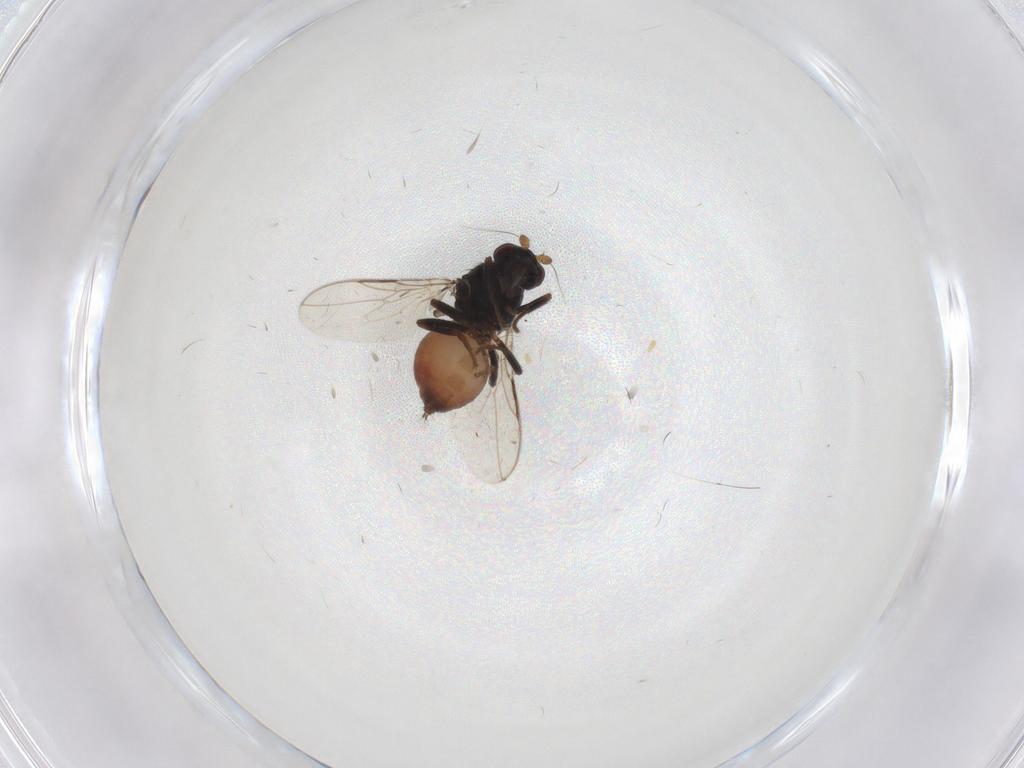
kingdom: Animalia
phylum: Arthropoda
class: Insecta
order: Diptera
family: Sphaeroceridae
